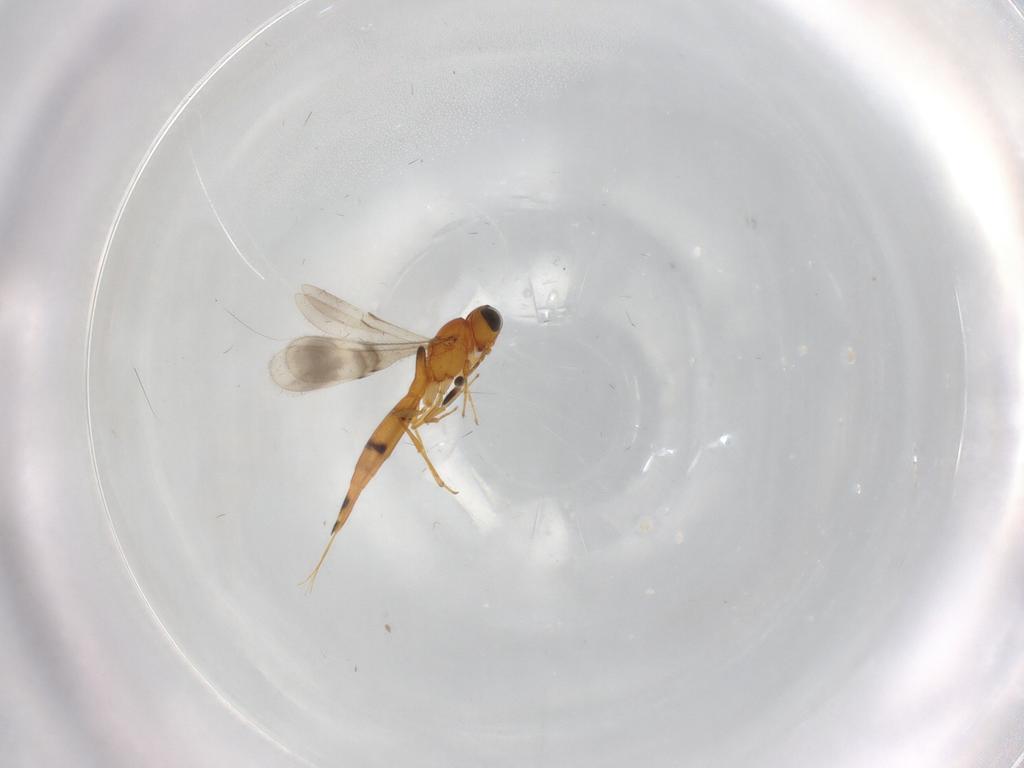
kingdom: Animalia
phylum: Arthropoda
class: Insecta
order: Hymenoptera
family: Scelionidae
